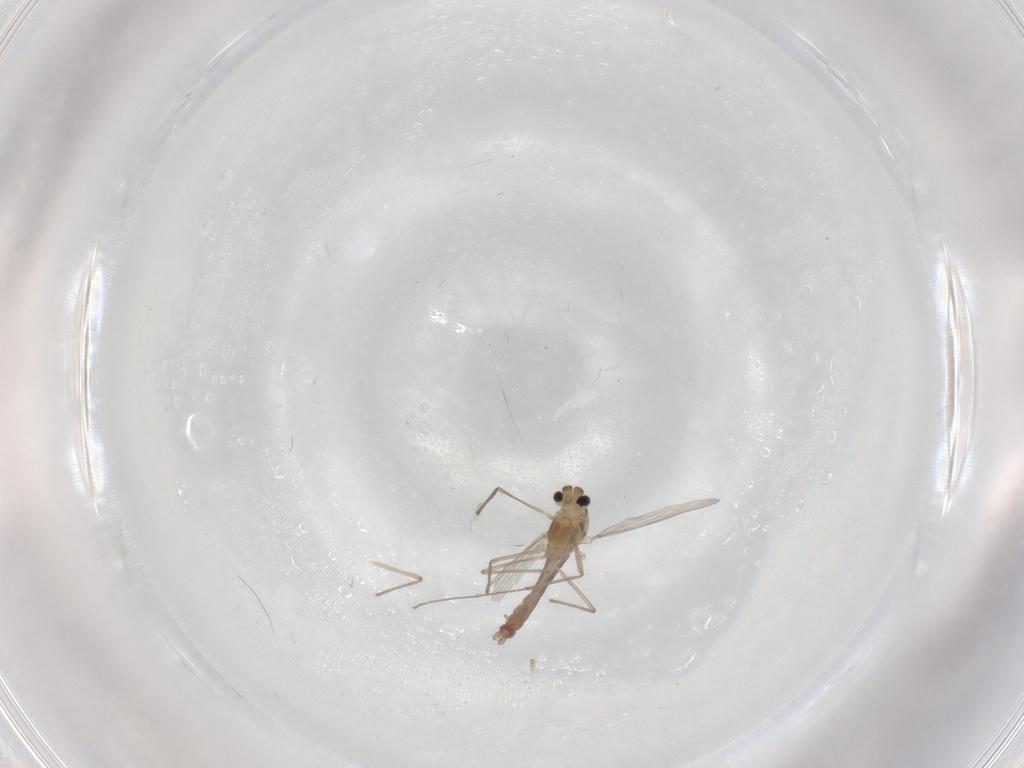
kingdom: Animalia
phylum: Arthropoda
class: Insecta
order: Diptera
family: Chironomidae
